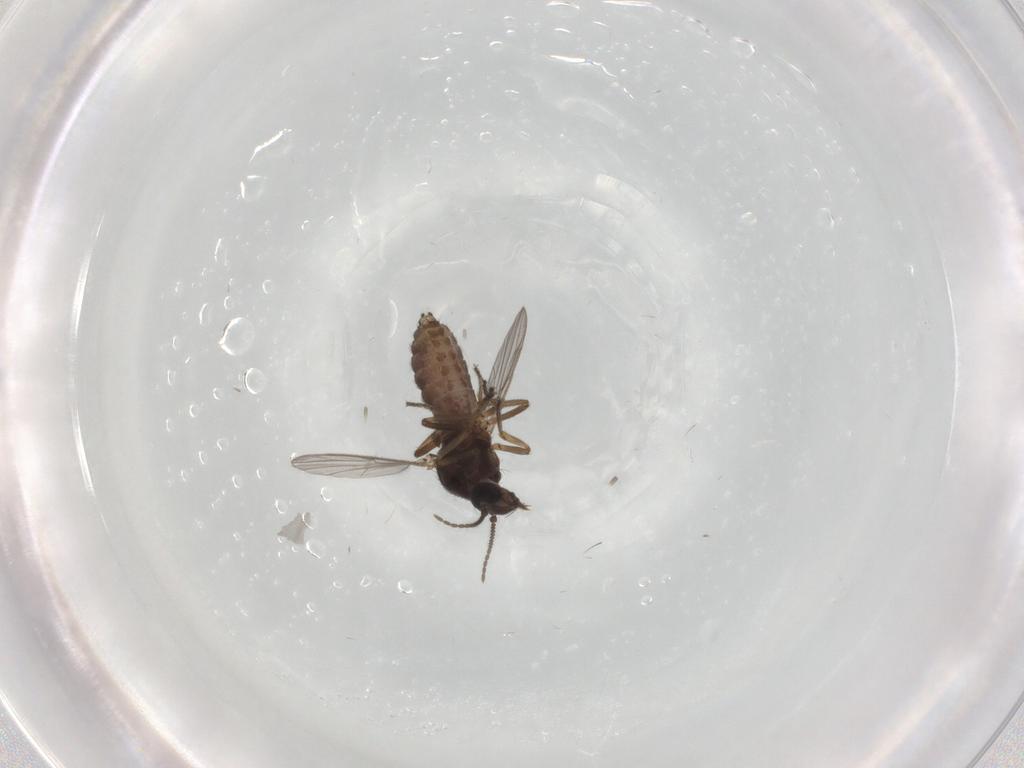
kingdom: Animalia
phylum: Arthropoda
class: Insecta
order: Diptera
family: Ceratopogonidae
